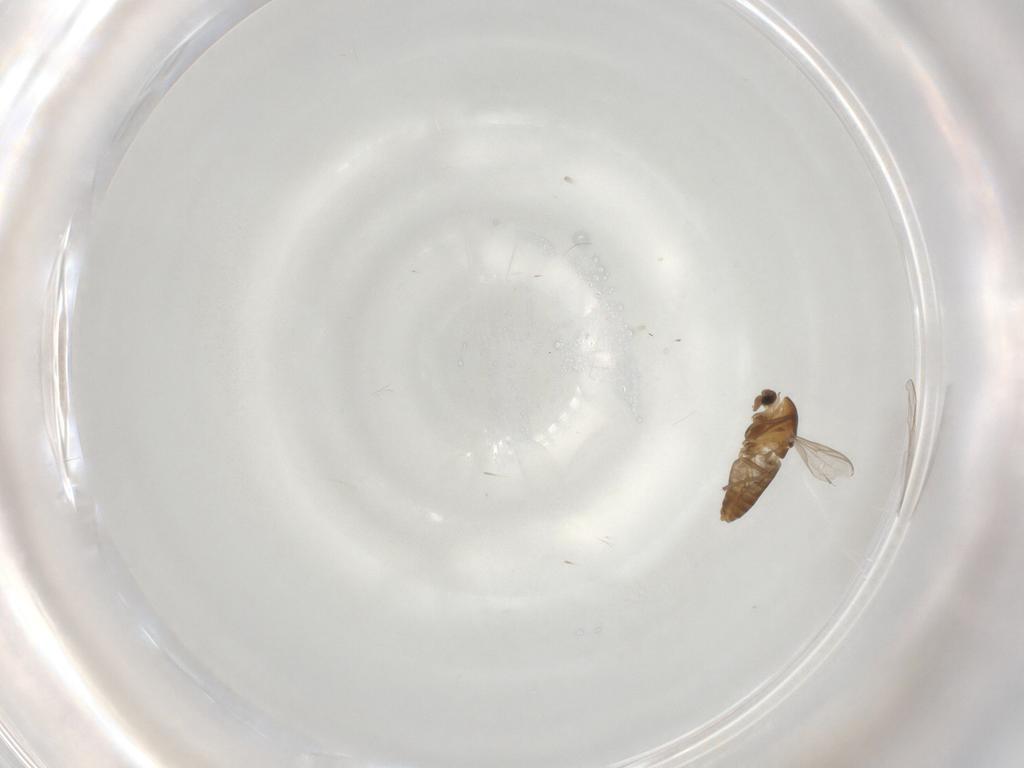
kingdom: Animalia
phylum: Arthropoda
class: Insecta
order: Diptera
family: Chironomidae
